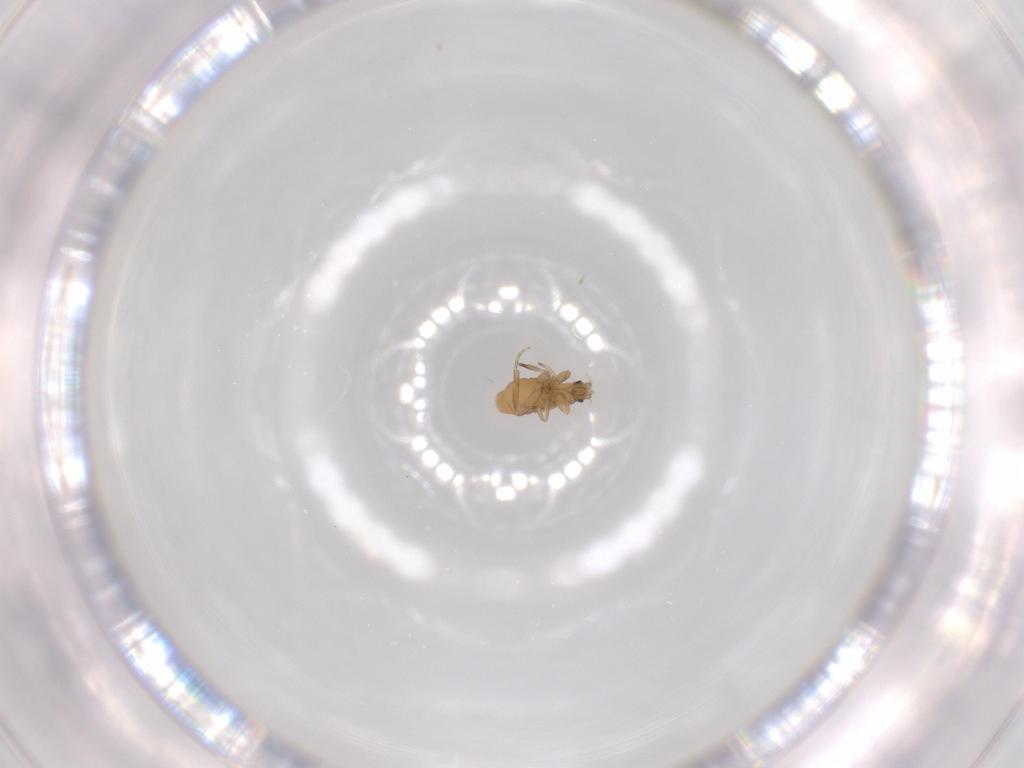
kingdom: Animalia
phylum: Arthropoda
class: Insecta
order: Diptera
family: Phoridae
